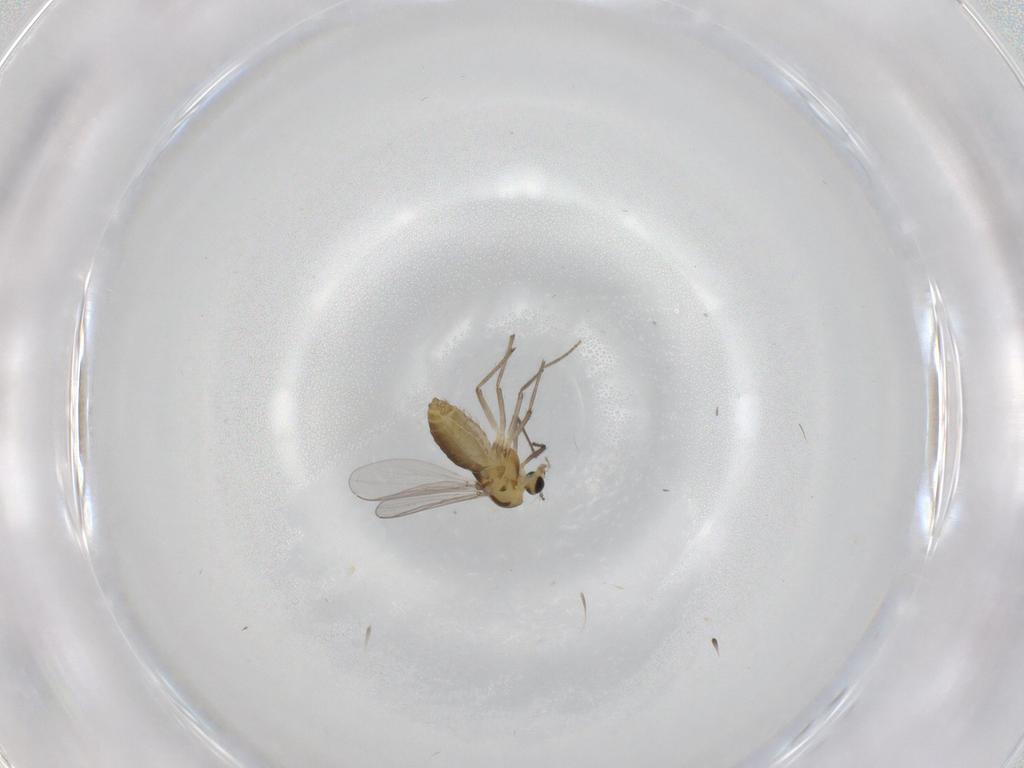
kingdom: Animalia
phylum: Arthropoda
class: Insecta
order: Diptera
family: Chironomidae
